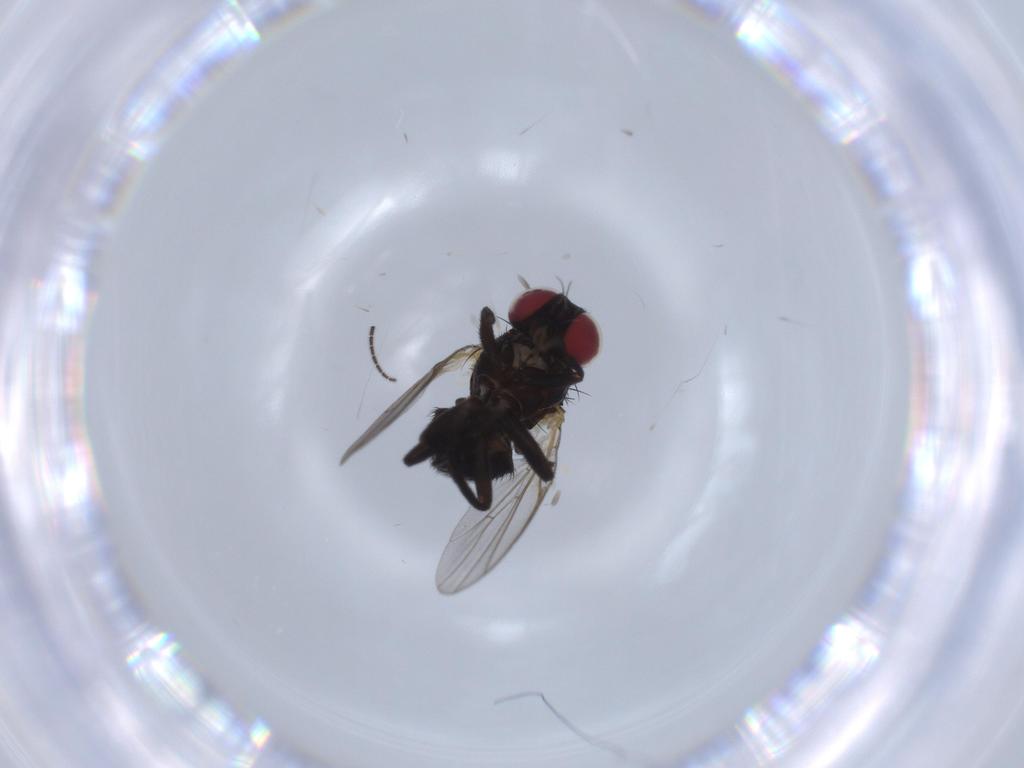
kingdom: Animalia
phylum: Arthropoda
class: Insecta
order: Diptera
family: Agromyzidae
